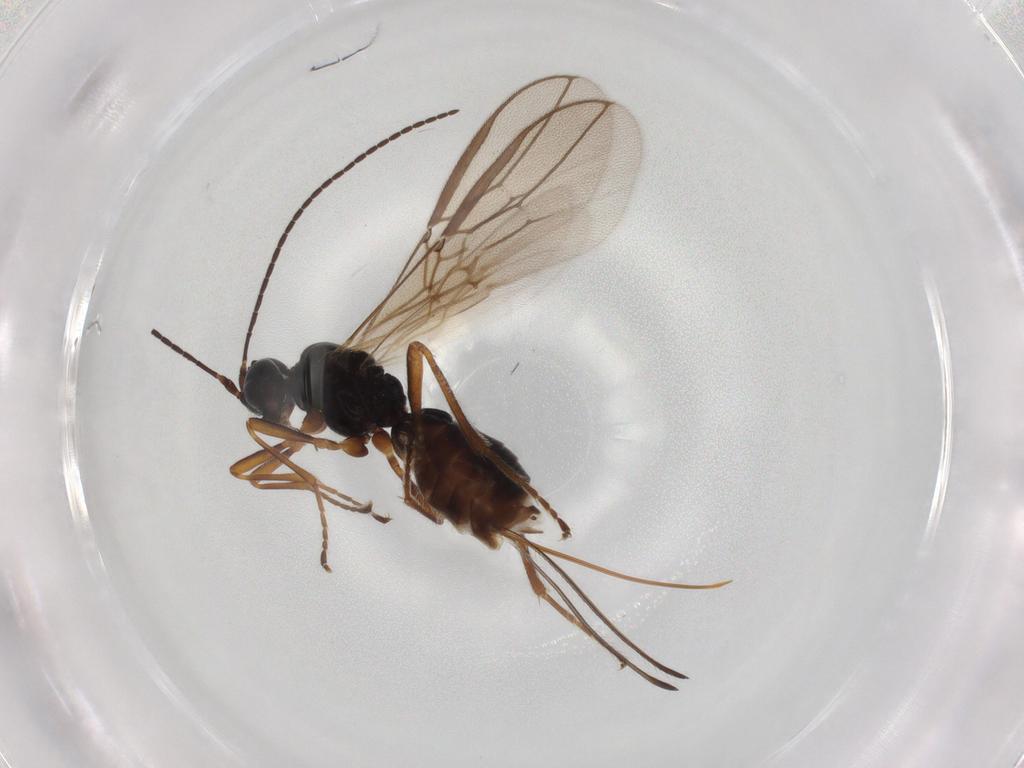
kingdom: Animalia
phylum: Arthropoda
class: Insecta
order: Hymenoptera
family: Braconidae
